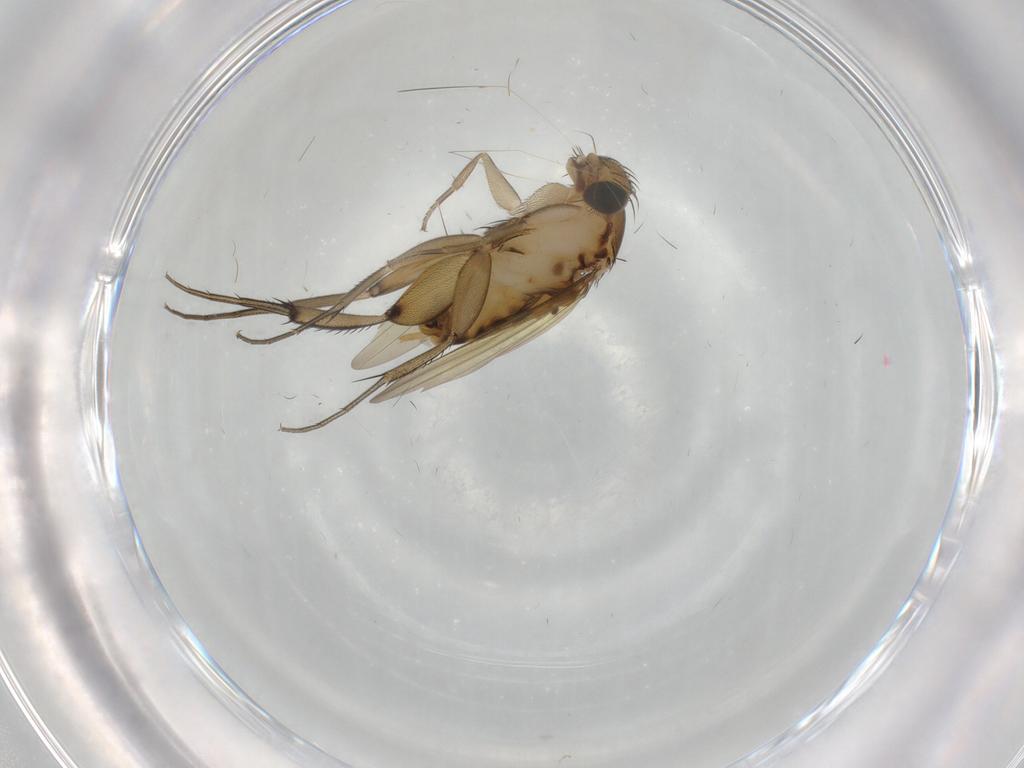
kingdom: Animalia
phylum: Arthropoda
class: Insecta
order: Diptera
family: Phoridae
